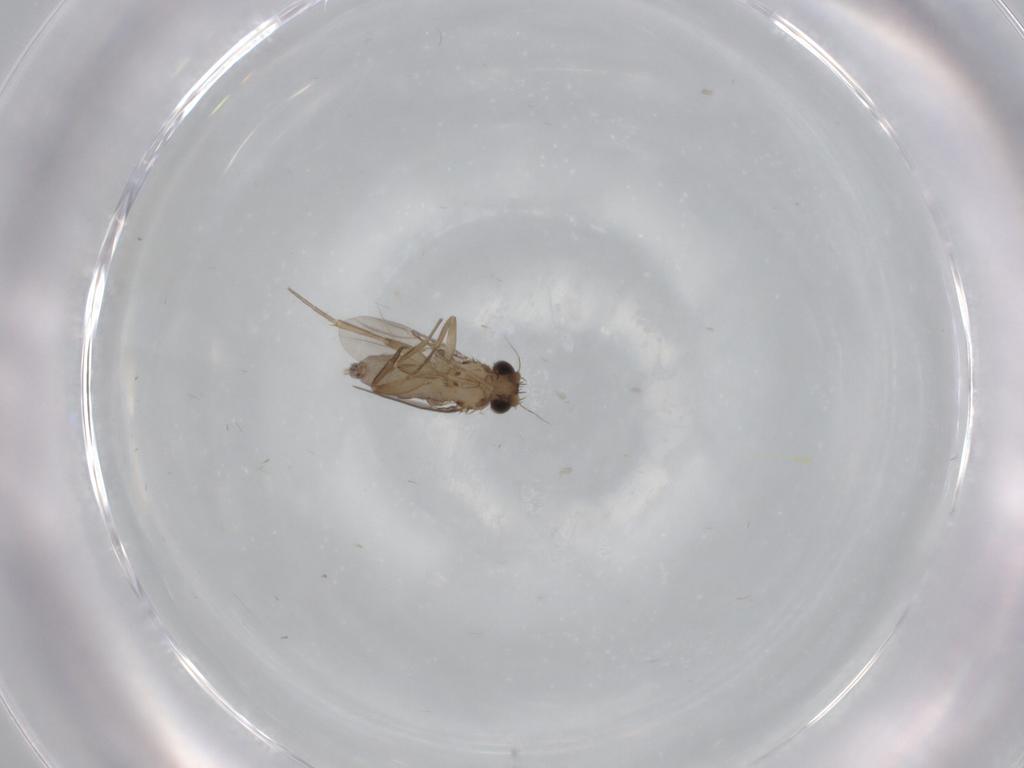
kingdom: Animalia
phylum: Arthropoda
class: Insecta
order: Diptera
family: Phoridae
